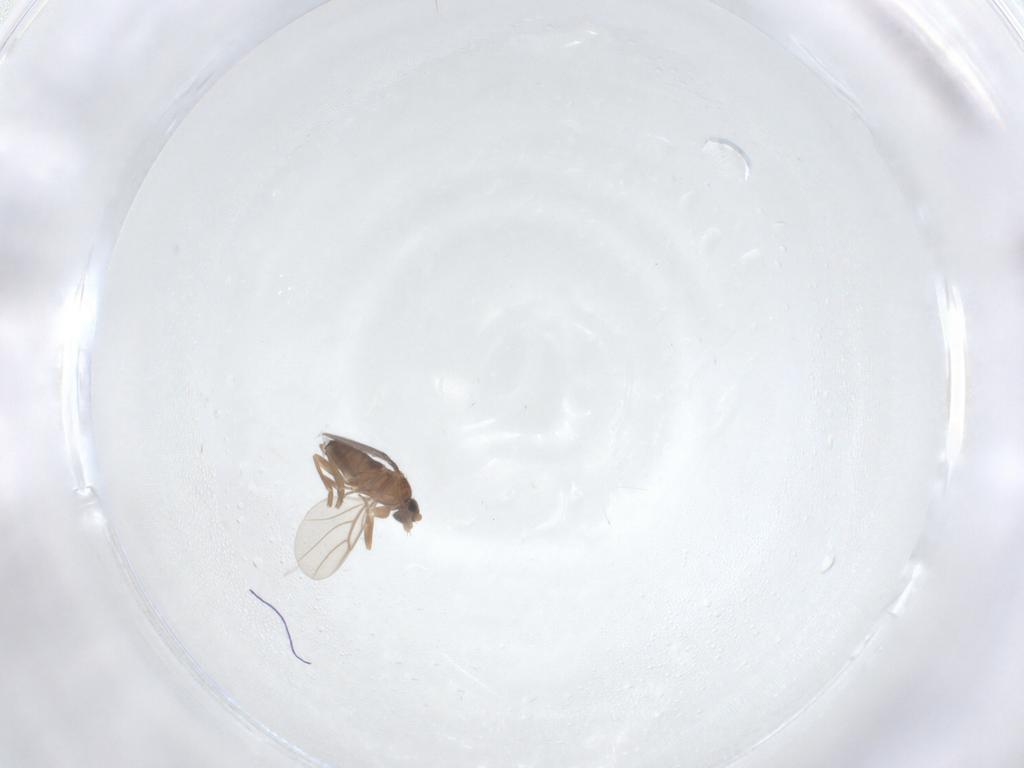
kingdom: Animalia
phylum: Arthropoda
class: Insecta
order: Diptera
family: Phoridae
